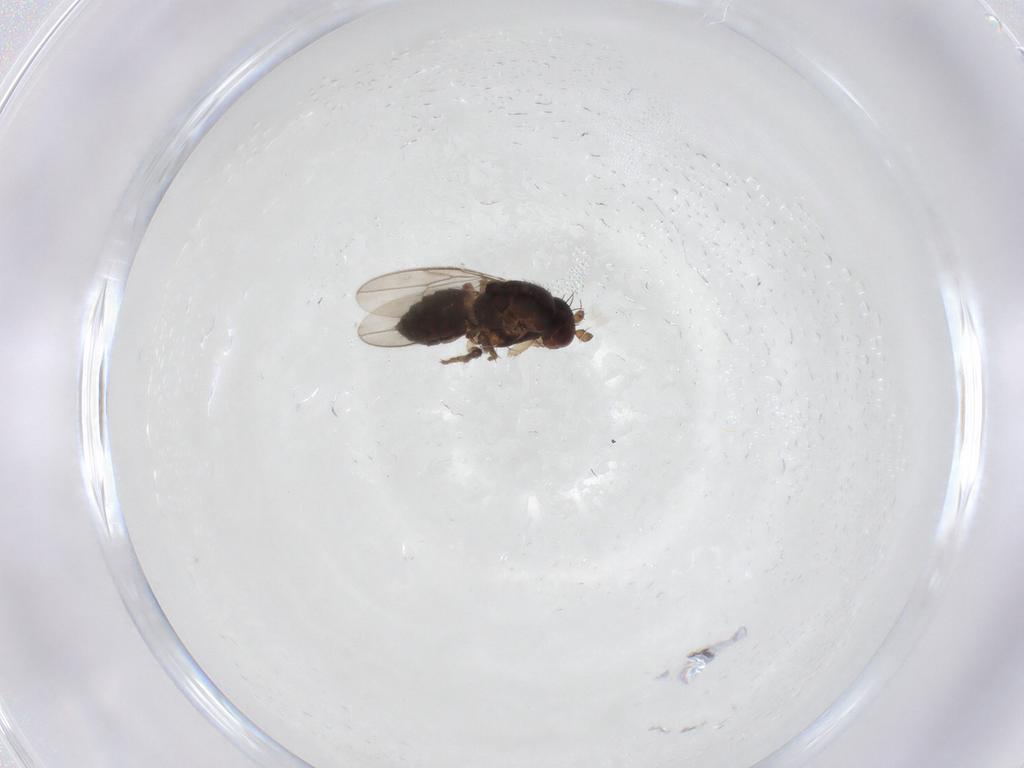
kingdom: Animalia
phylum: Arthropoda
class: Insecta
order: Diptera
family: Sphaeroceridae
